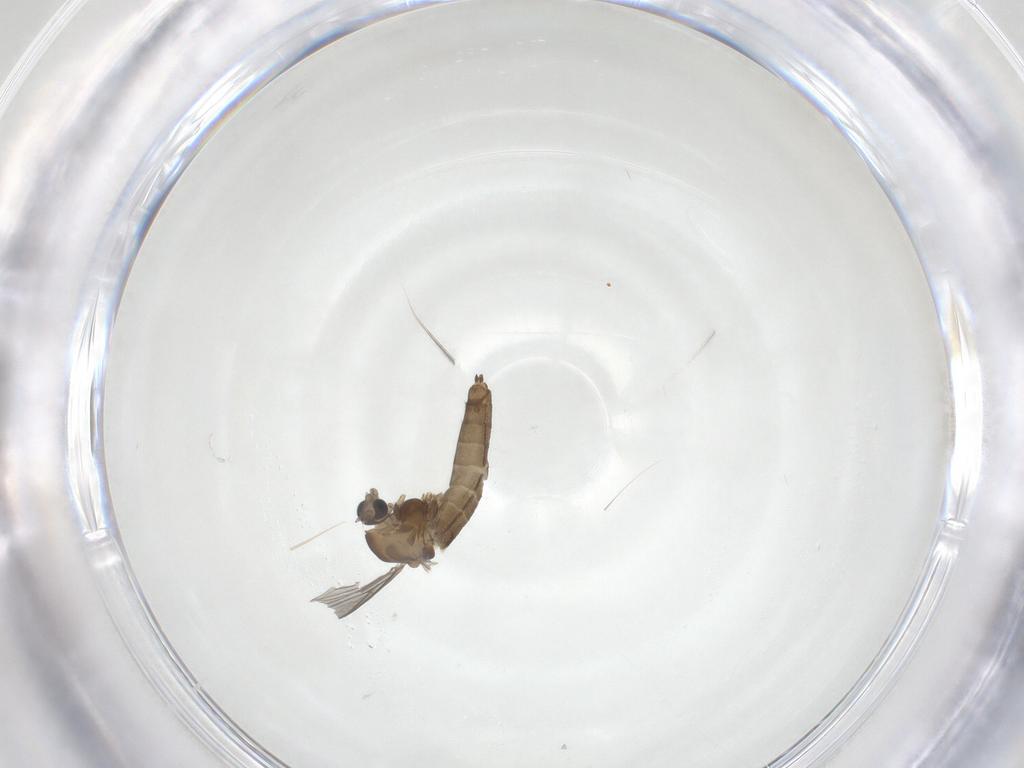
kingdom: Animalia
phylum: Arthropoda
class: Insecta
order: Diptera
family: Chironomidae
